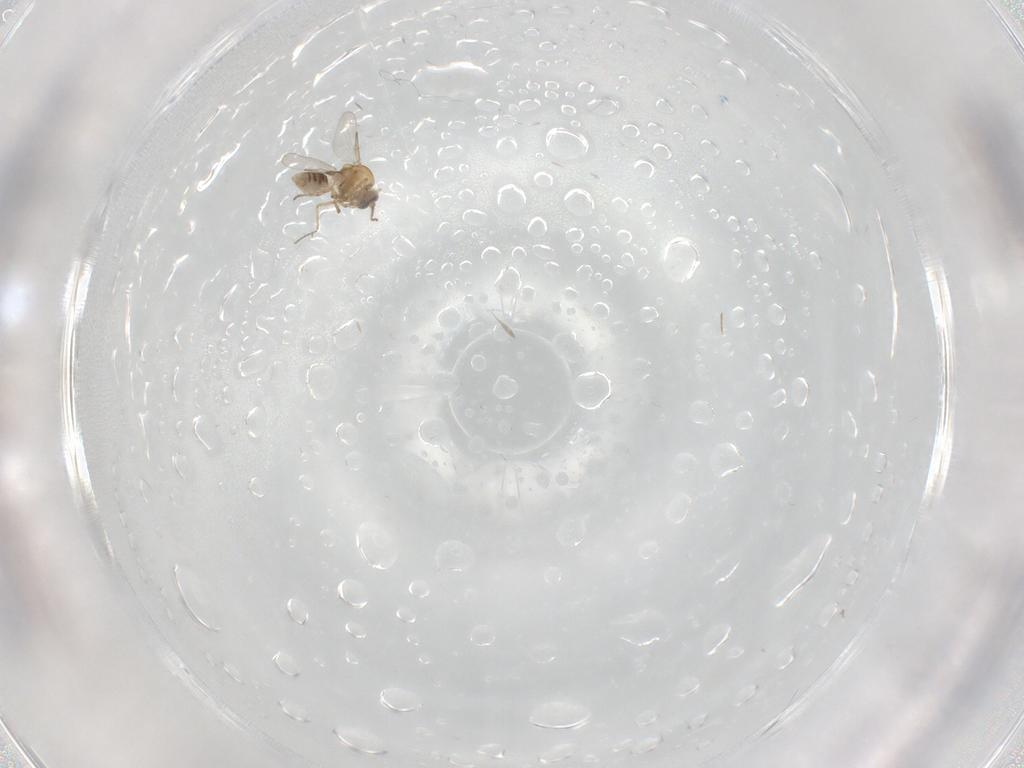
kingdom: Animalia
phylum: Arthropoda
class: Insecta
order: Diptera
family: Ceratopogonidae
